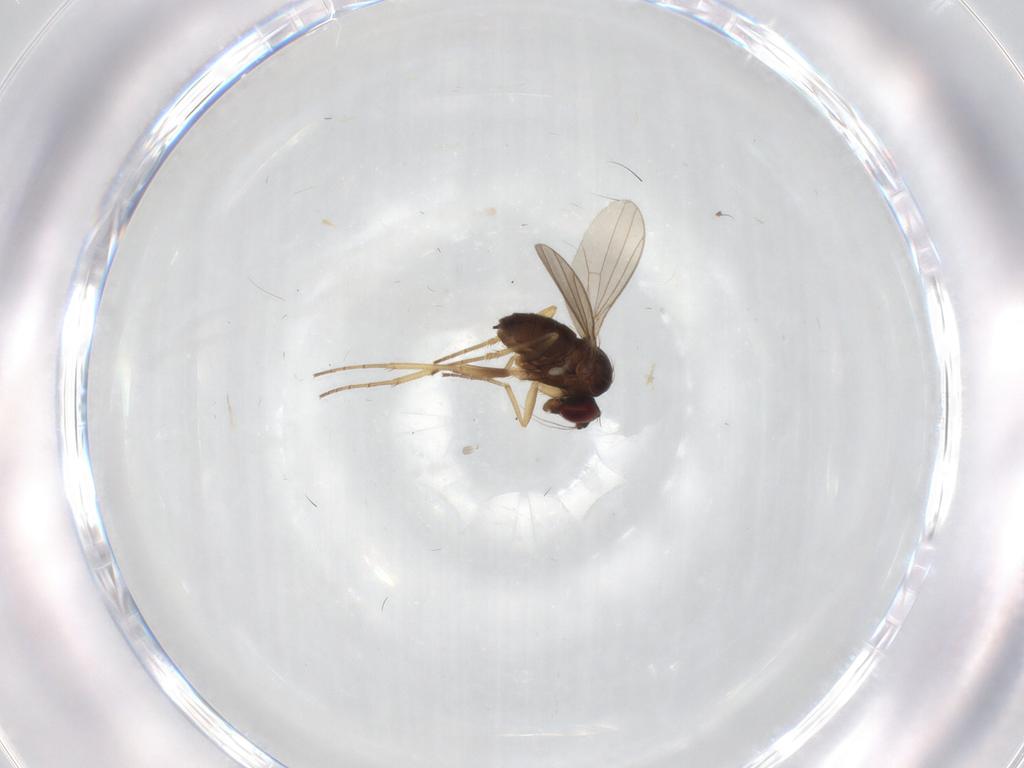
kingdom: Animalia
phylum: Arthropoda
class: Insecta
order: Diptera
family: Dolichopodidae
